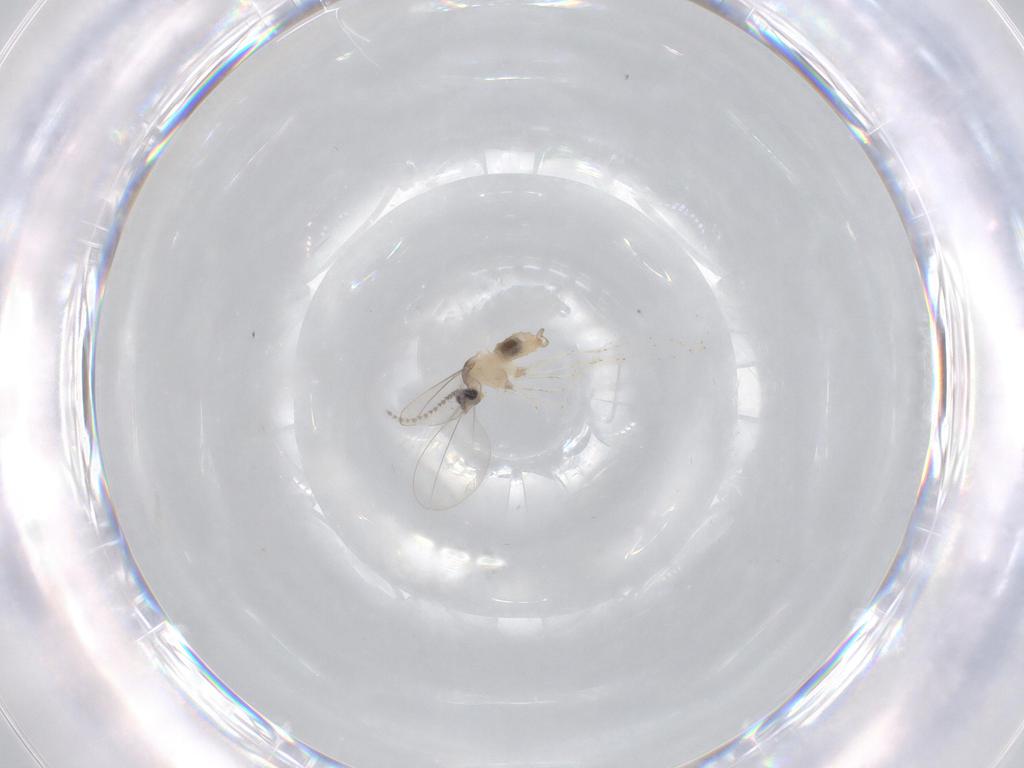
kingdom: Animalia
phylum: Arthropoda
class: Insecta
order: Diptera
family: Cecidomyiidae
